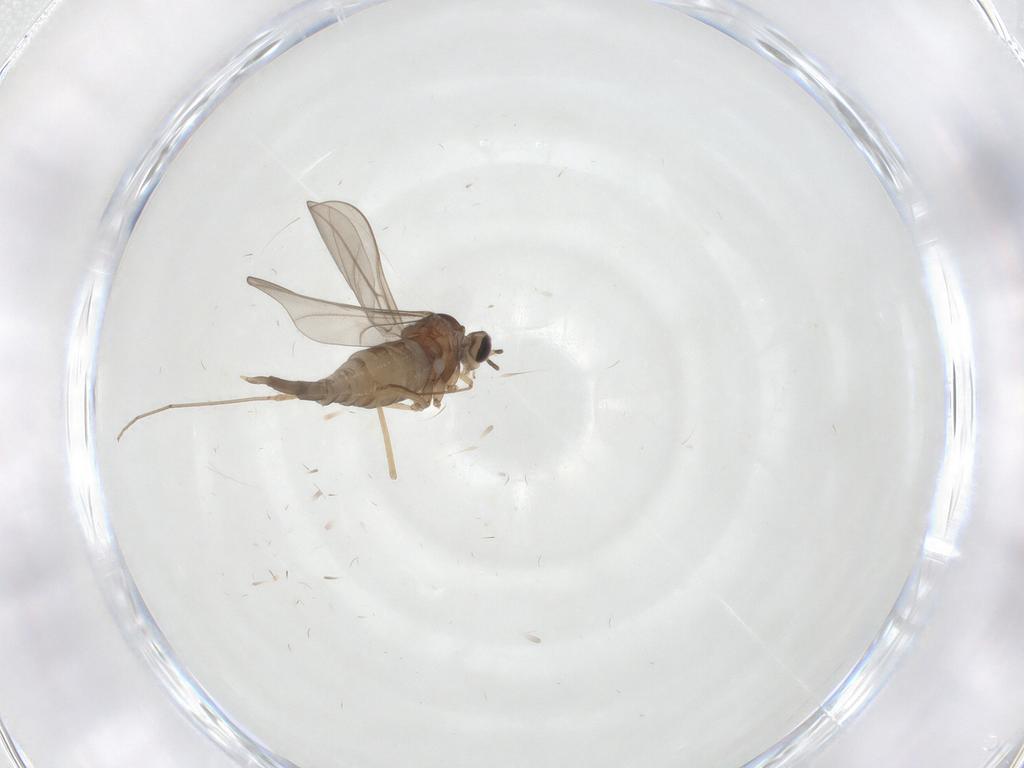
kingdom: Animalia
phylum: Arthropoda
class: Insecta
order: Diptera
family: Chironomidae
